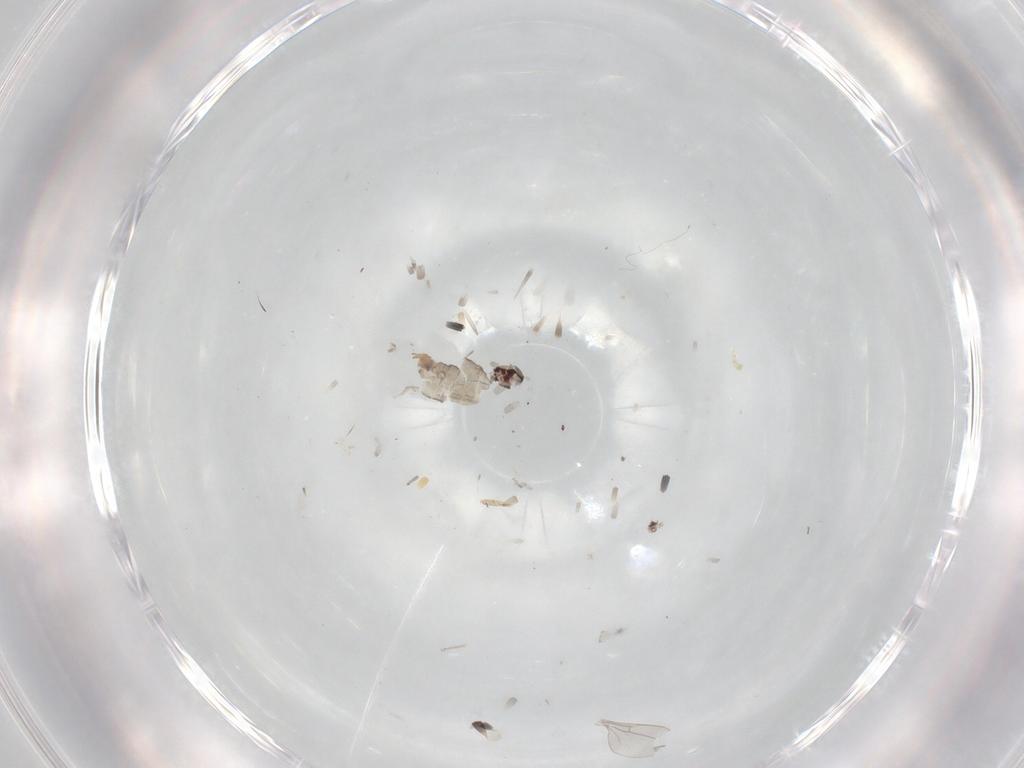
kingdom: Animalia
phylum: Arthropoda
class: Insecta
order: Diptera
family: Cecidomyiidae
